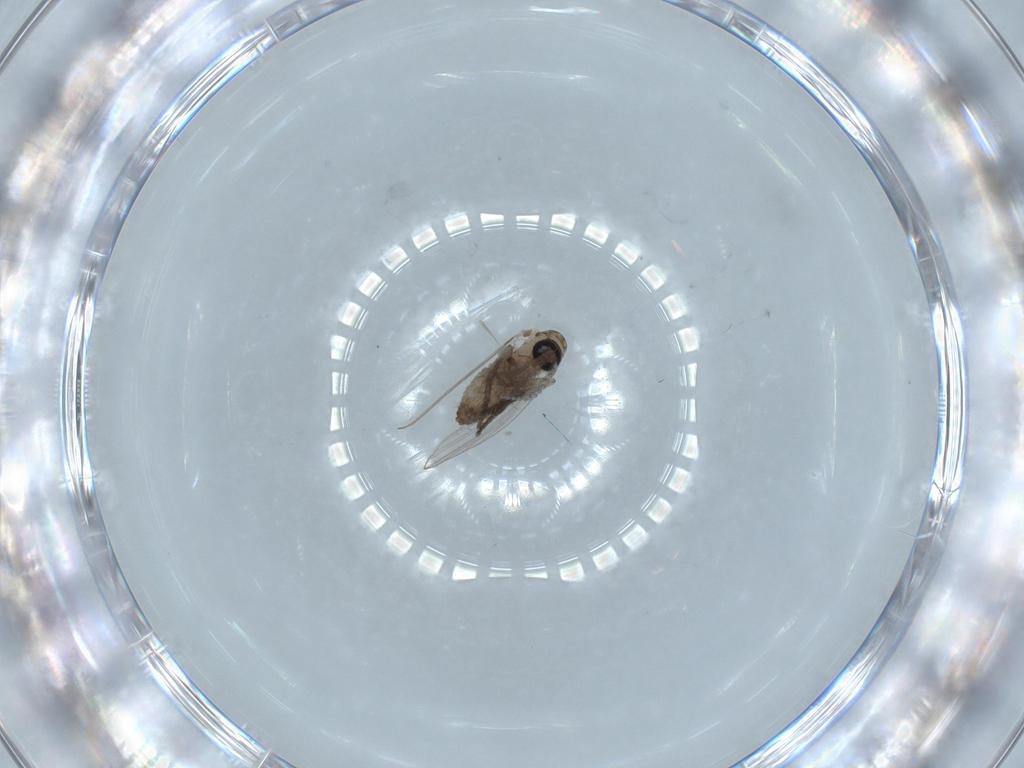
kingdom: Animalia
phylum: Arthropoda
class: Insecta
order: Diptera
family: Psychodidae
